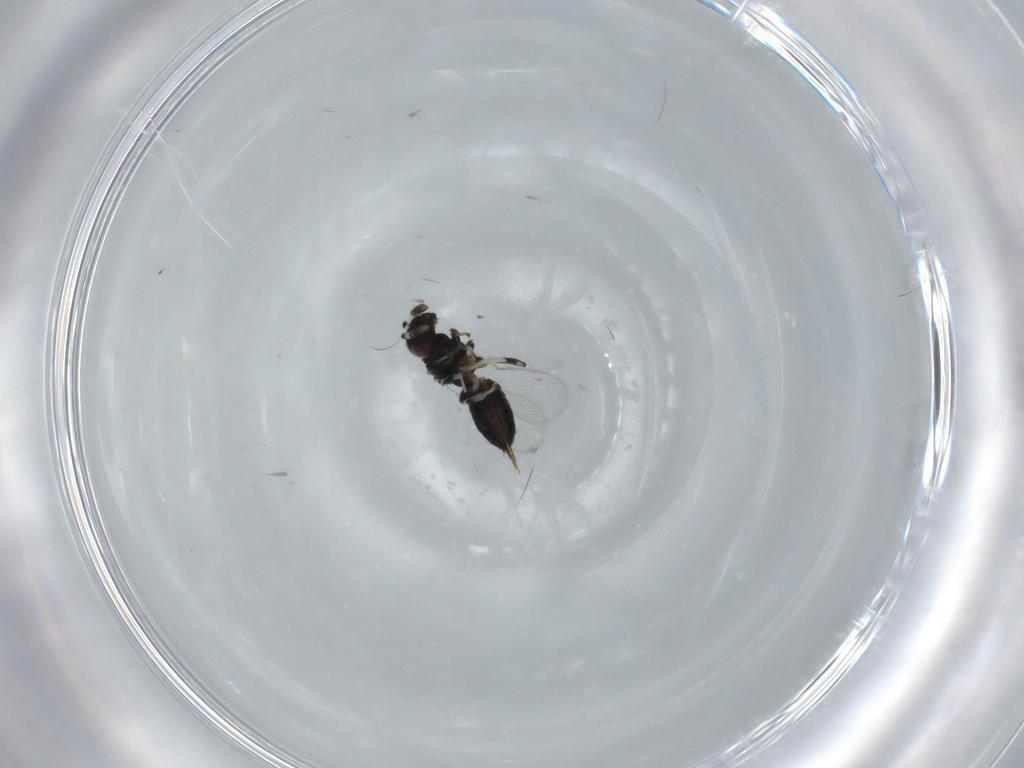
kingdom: Animalia
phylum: Arthropoda
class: Insecta
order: Hymenoptera
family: Pirenidae
